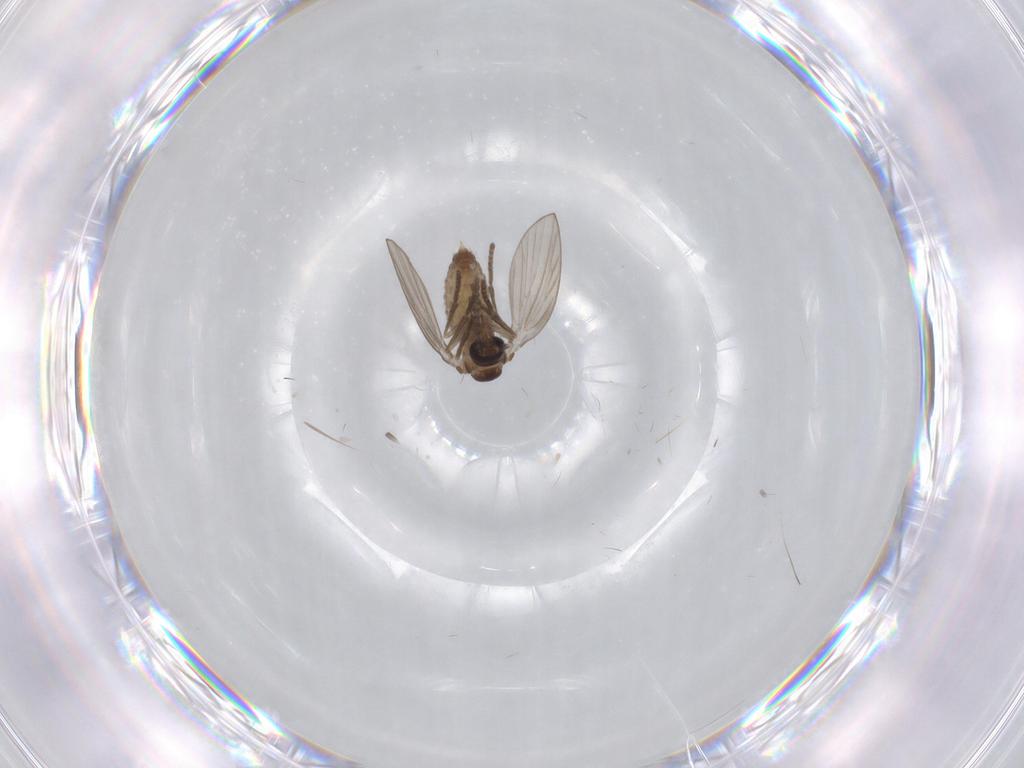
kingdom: Animalia
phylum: Arthropoda
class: Insecta
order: Diptera
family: Psychodidae
